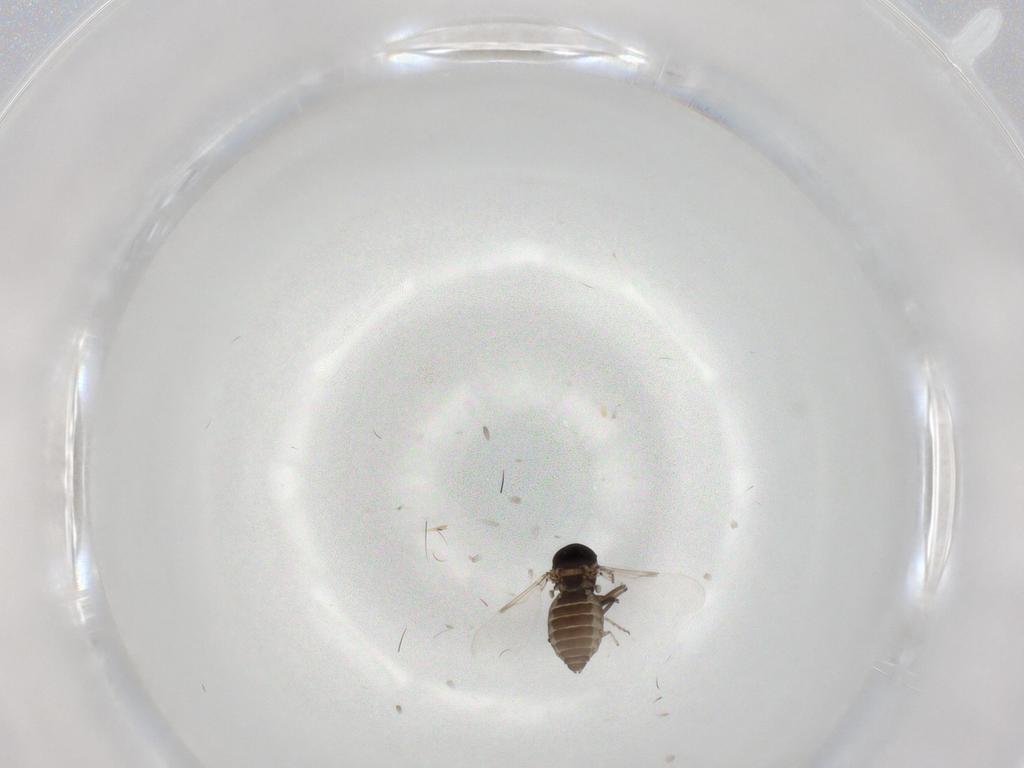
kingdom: Animalia
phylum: Arthropoda
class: Insecta
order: Diptera
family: Ceratopogonidae
